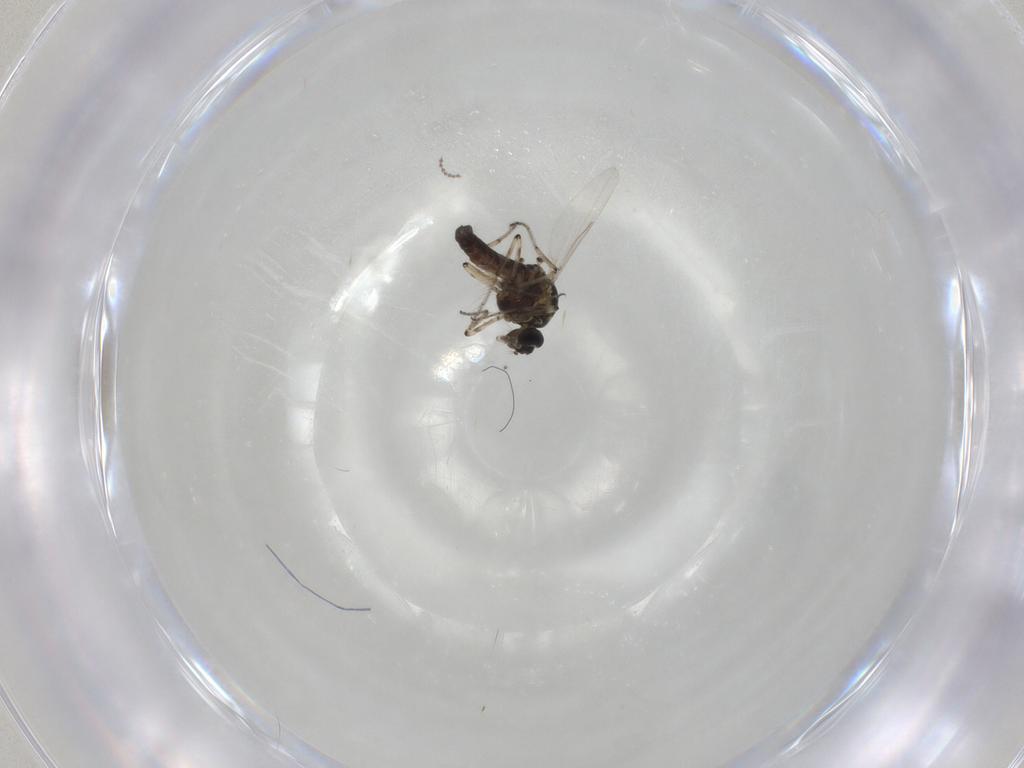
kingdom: Animalia
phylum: Arthropoda
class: Insecta
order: Diptera
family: Ceratopogonidae
